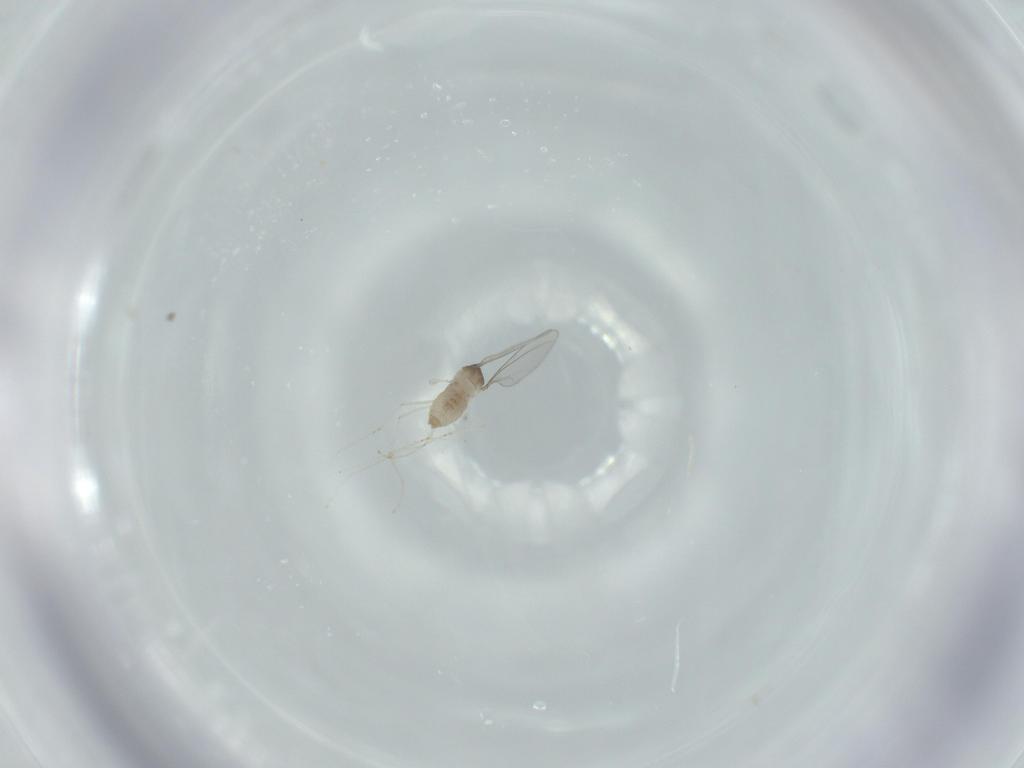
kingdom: Animalia
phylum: Arthropoda
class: Insecta
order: Diptera
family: Cecidomyiidae
